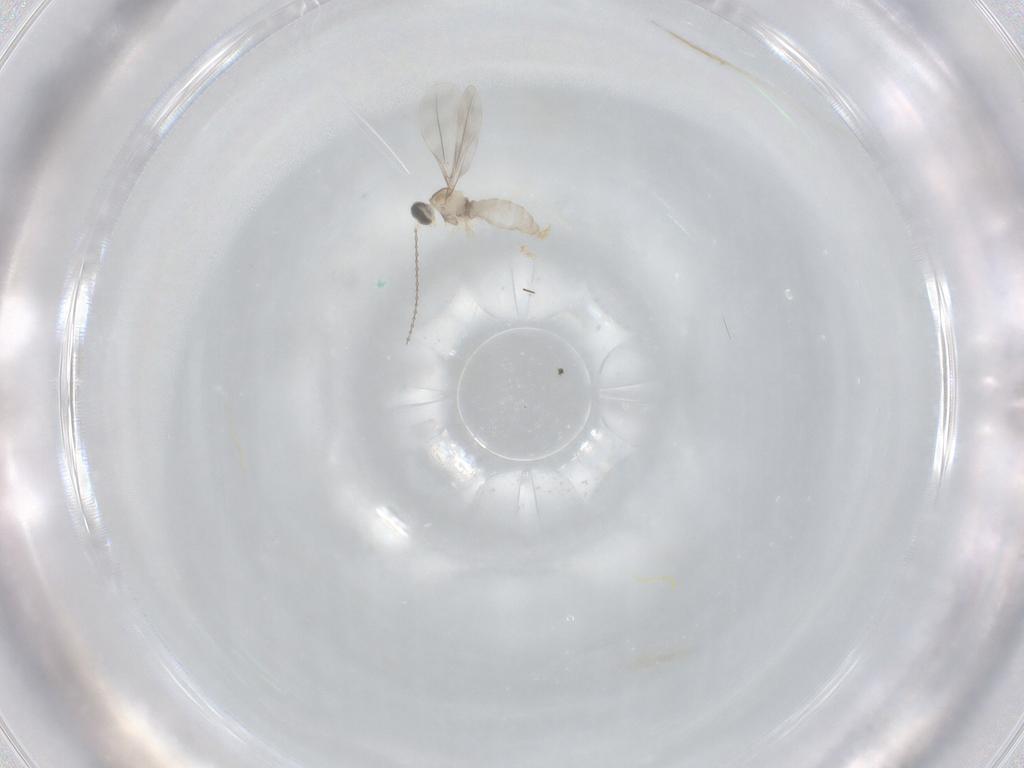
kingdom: Animalia
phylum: Arthropoda
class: Insecta
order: Diptera
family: Cecidomyiidae
